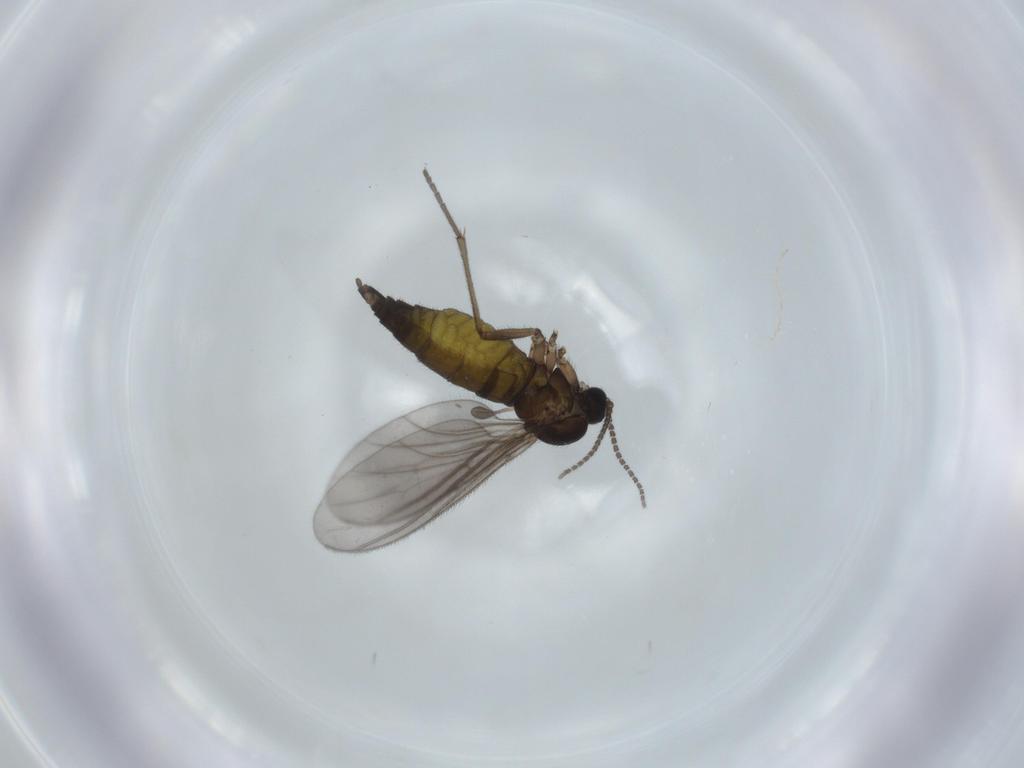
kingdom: Animalia
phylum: Arthropoda
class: Insecta
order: Diptera
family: Sciaridae
